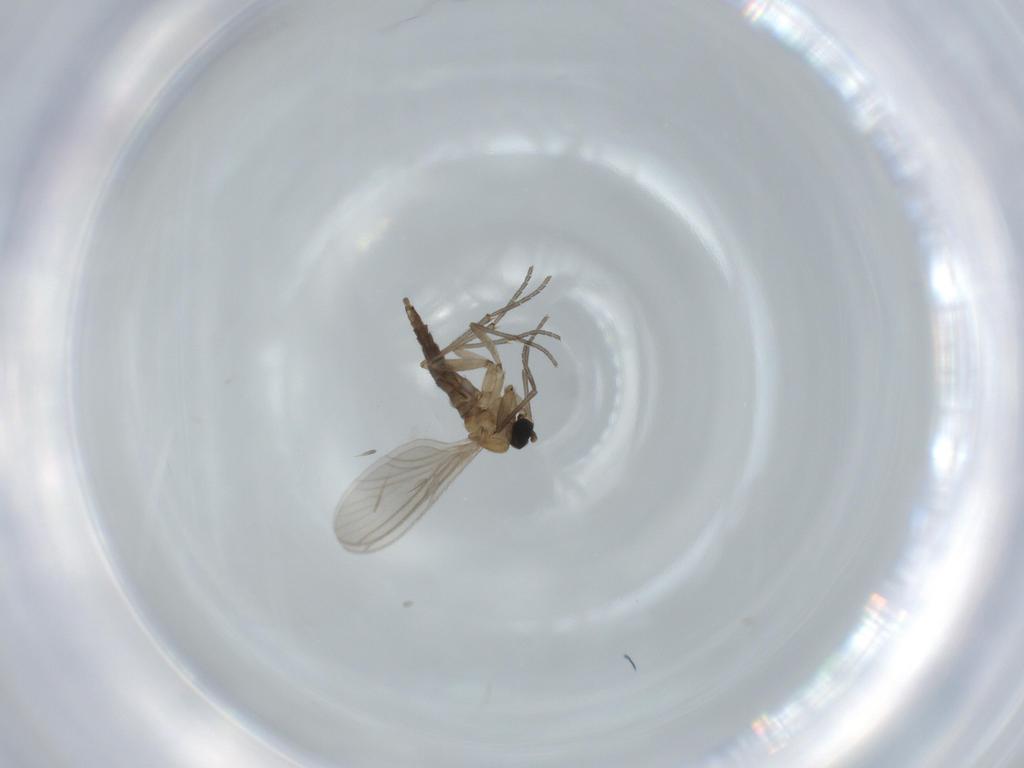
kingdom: Animalia
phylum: Arthropoda
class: Insecta
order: Diptera
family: Sciaridae
